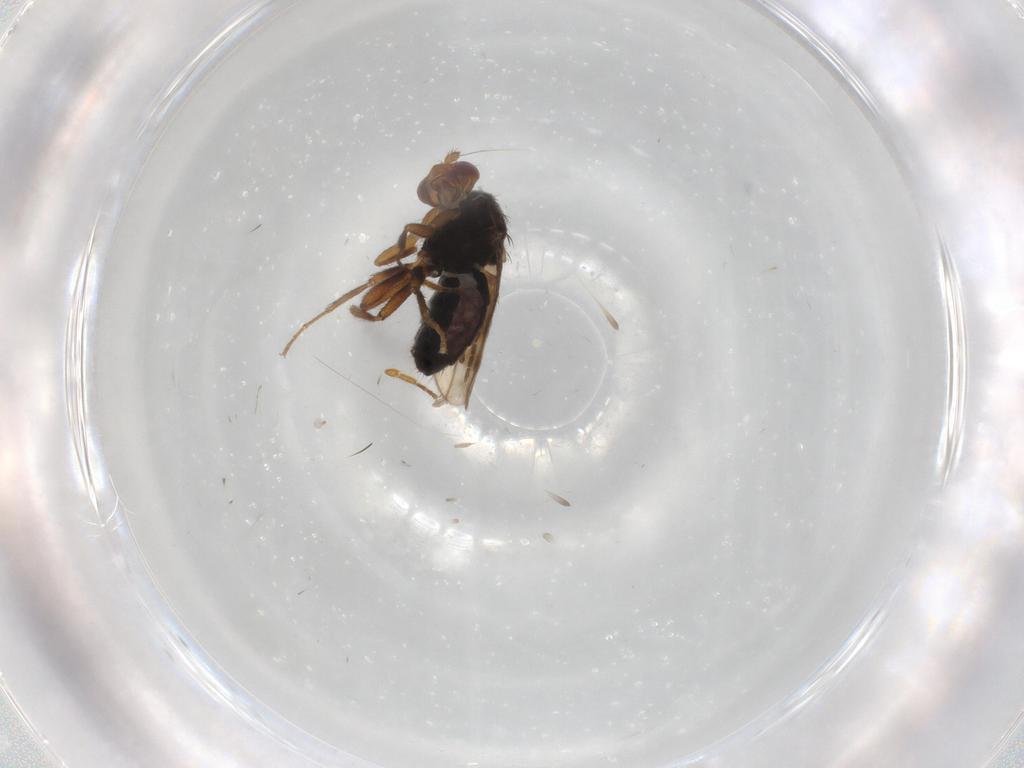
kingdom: Animalia
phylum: Arthropoda
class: Insecta
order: Diptera
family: Sphaeroceridae
